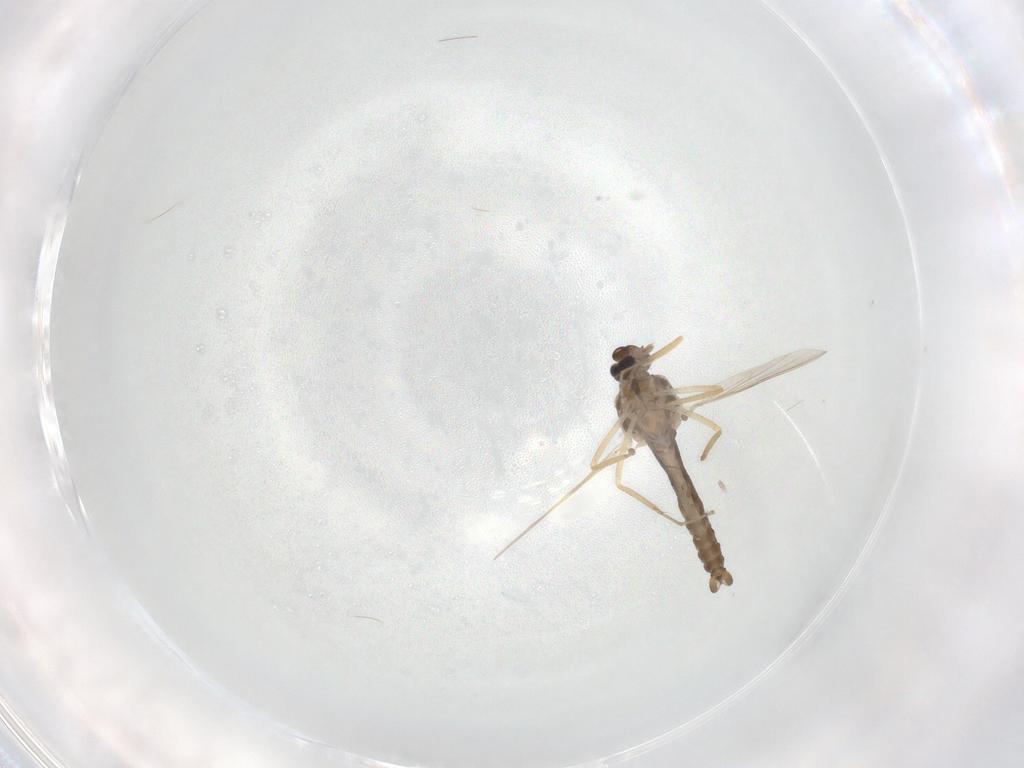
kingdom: Animalia
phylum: Arthropoda
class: Insecta
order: Diptera
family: Ceratopogonidae
